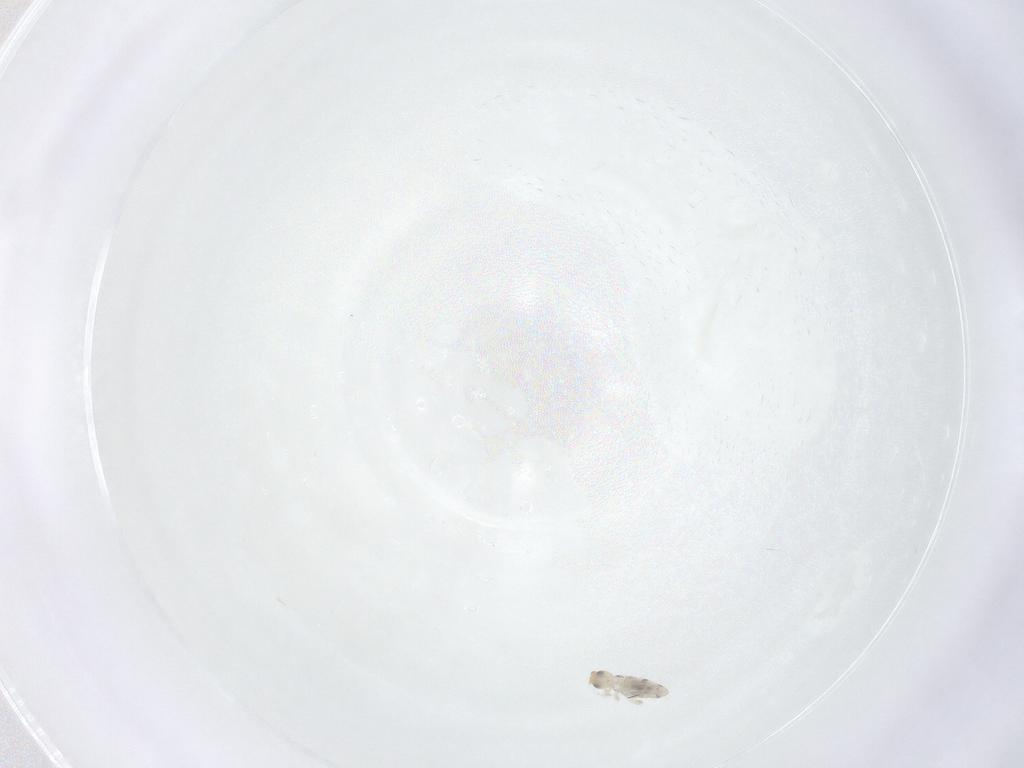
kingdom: Animalia
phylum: Arthropoda
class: Collembola
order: Entomobryomorpha
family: Entomobryidae
